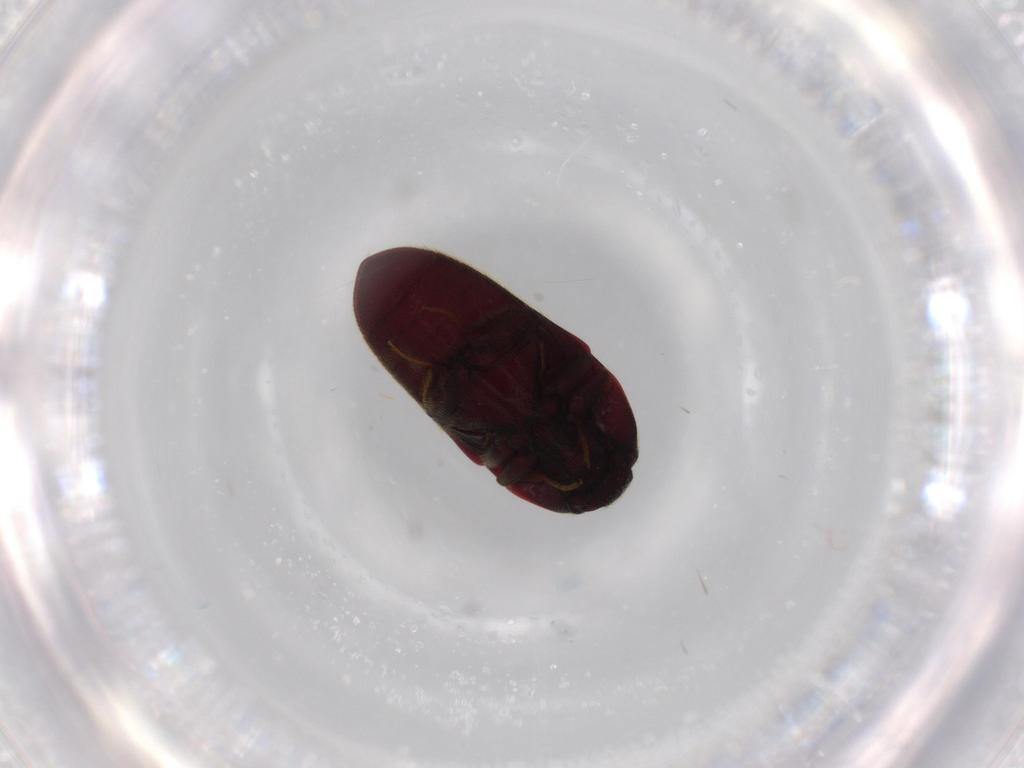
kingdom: Animalia
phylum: Arthropoda
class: Insecta
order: Coleoptera
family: Throscidae
